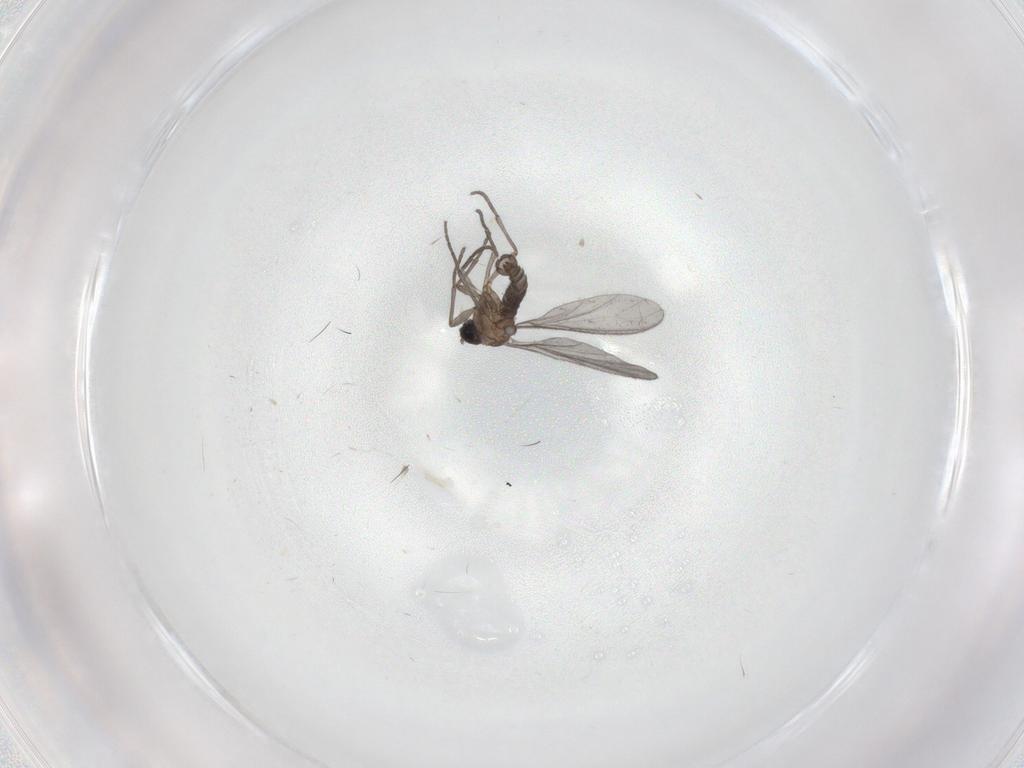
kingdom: Animalia
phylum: Arthropoda
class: Insecta
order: Diptera
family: Sciaridae
